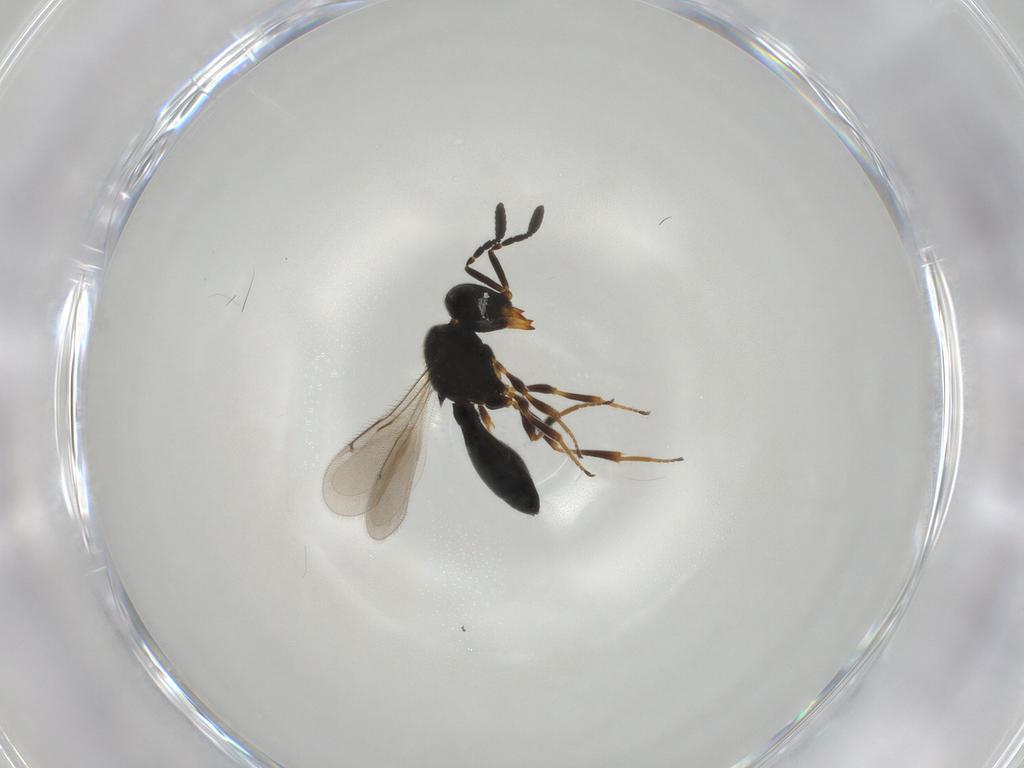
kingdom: Animalia
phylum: Arthropoda
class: Insecta
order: Hymenoptera
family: Scelionidae
